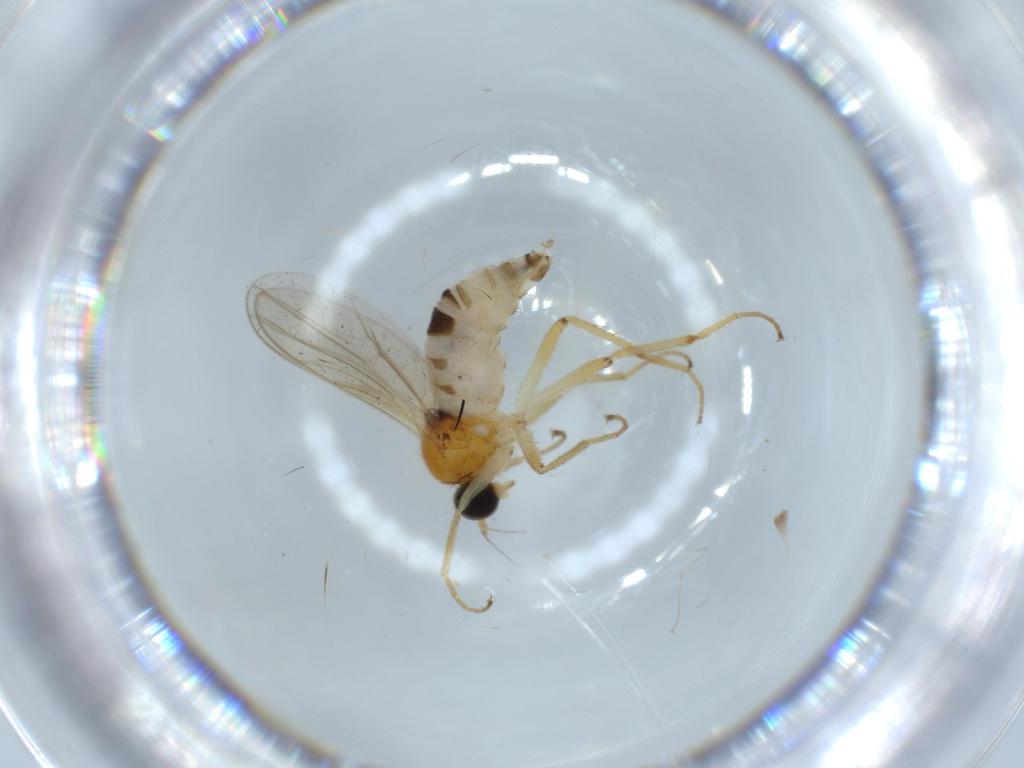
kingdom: Animalia
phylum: Arthropoda
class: Insecta
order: Diptera
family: Hybotidae
